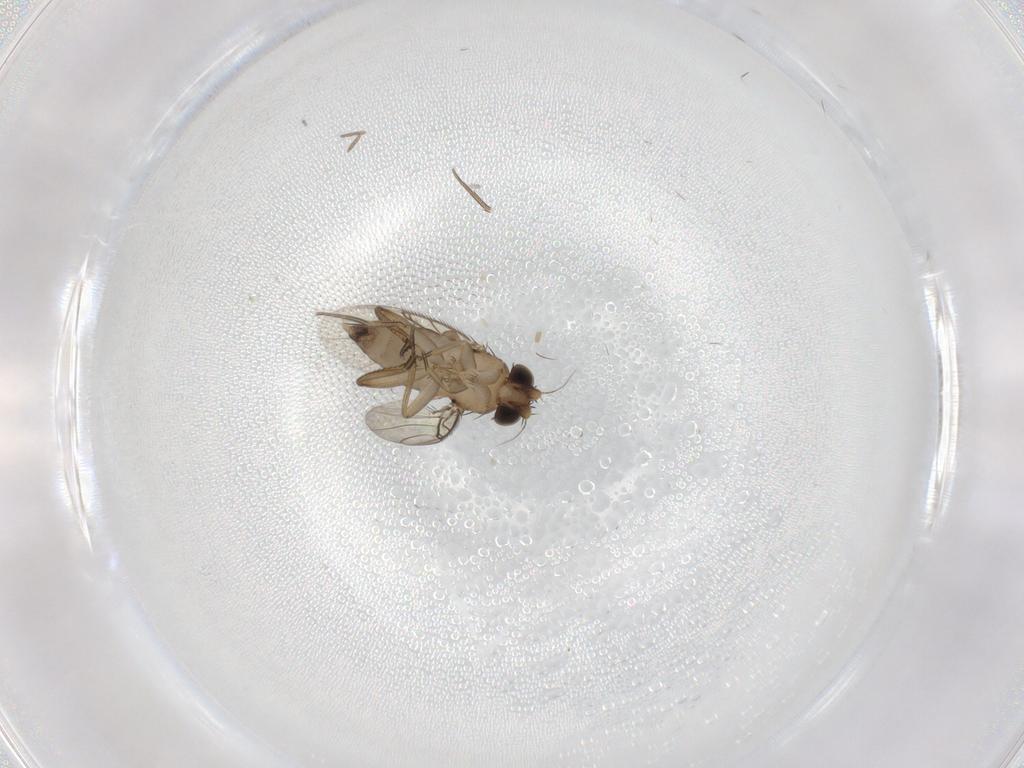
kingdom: Animalia
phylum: Arthropoda
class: Insecta
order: Diptera
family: Phoridae
